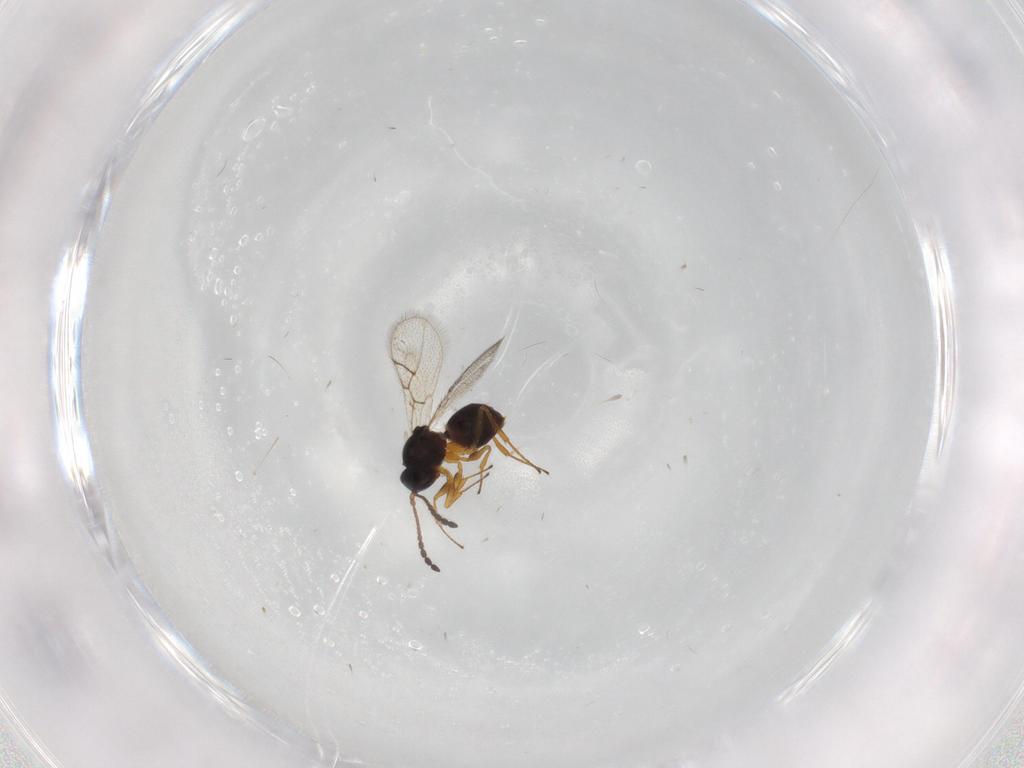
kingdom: Animalia
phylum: Arthropoda
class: Insecta
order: Hymenoptera
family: Figitidae
